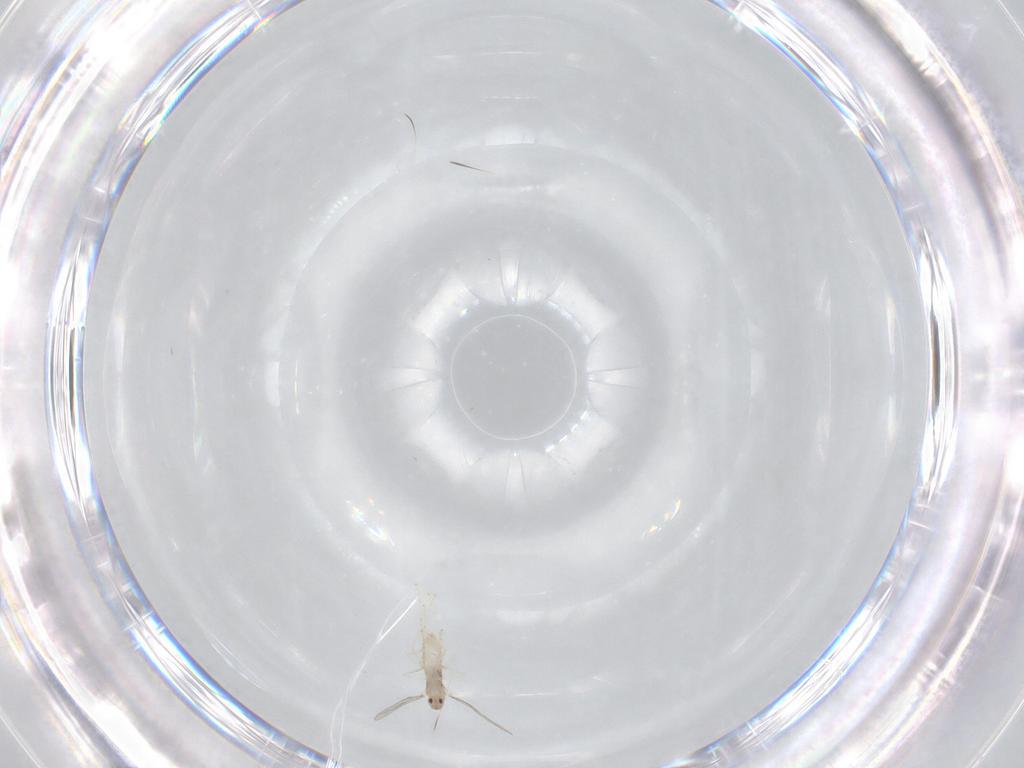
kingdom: Animalia
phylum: Arthropoda
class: Insecta
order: Diptera
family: Cecidomyiidae
